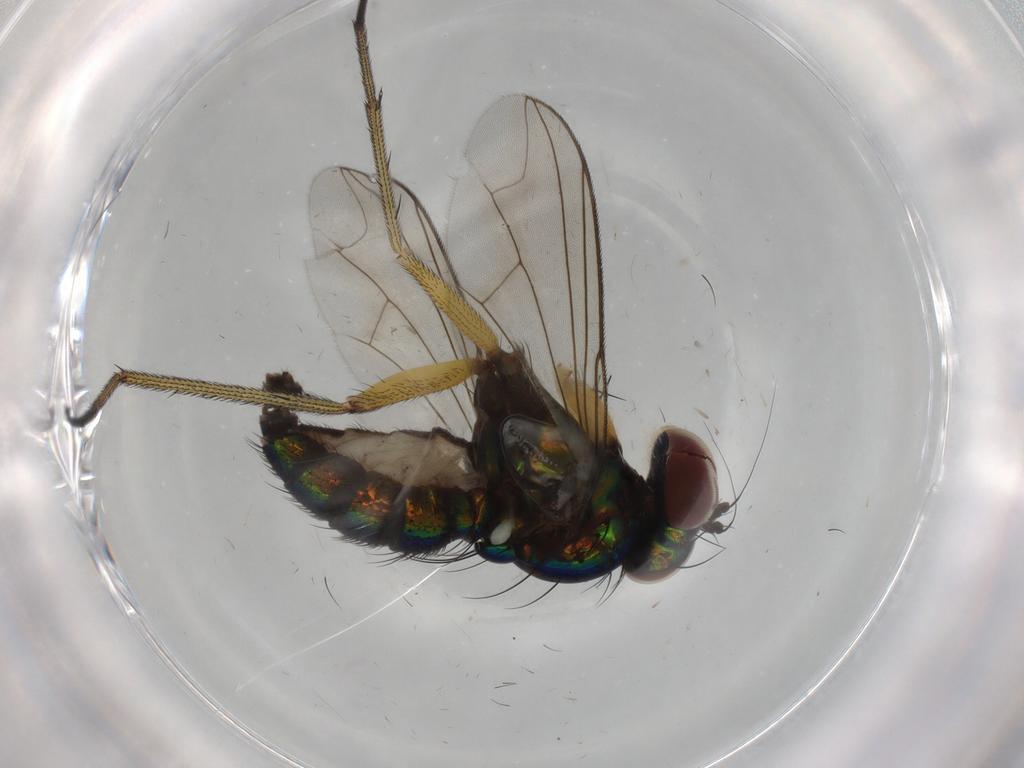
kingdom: Animalia
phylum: Arthropoda
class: Insecta
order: Diptera
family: Dolichopodidae
